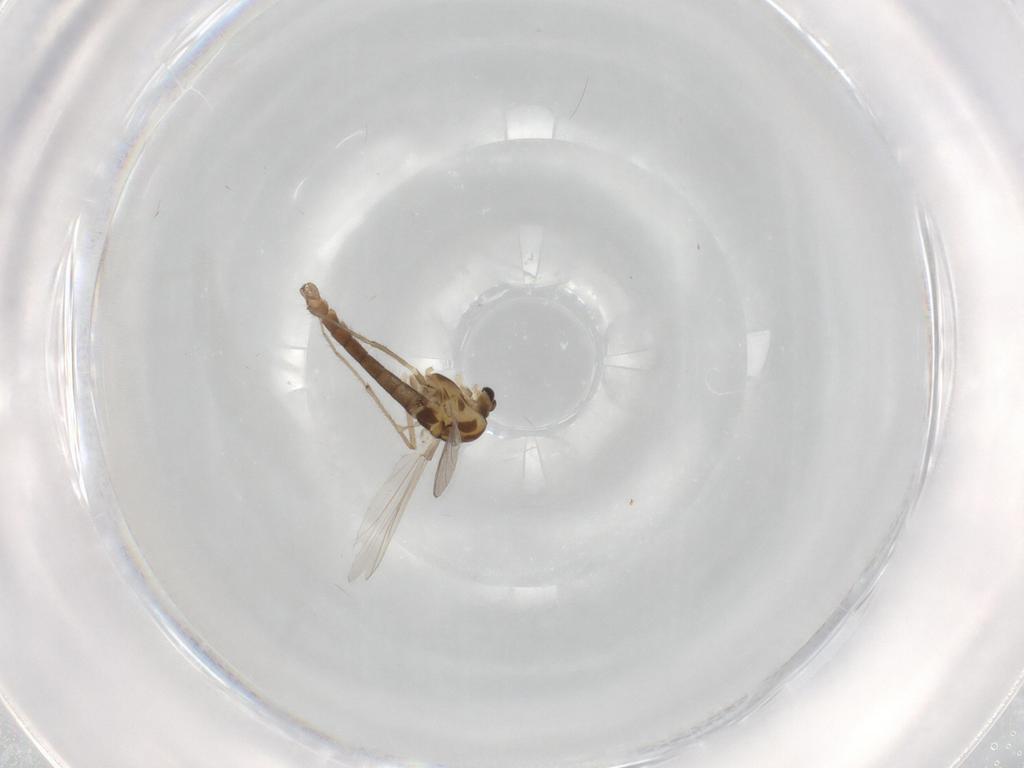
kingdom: Animalia
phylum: Arthropoda
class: Insecta
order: Diptera
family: Chironomidae
